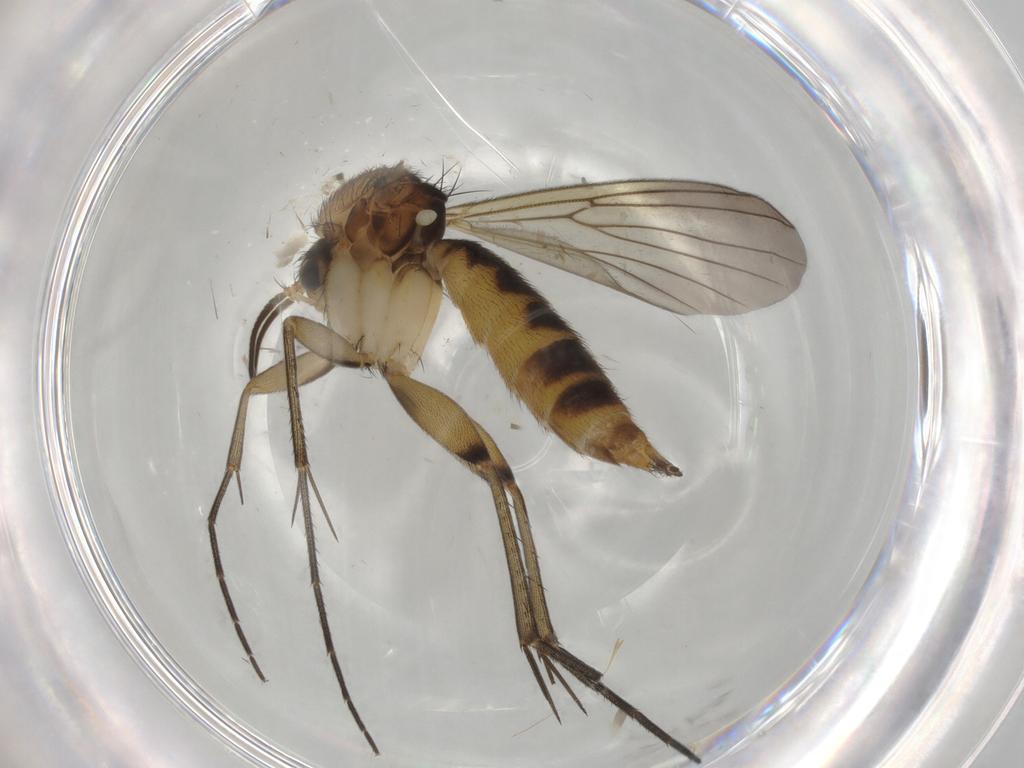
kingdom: Animalia
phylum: Arthropoda
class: Insecta
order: Diptera
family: Mycetophilidae
